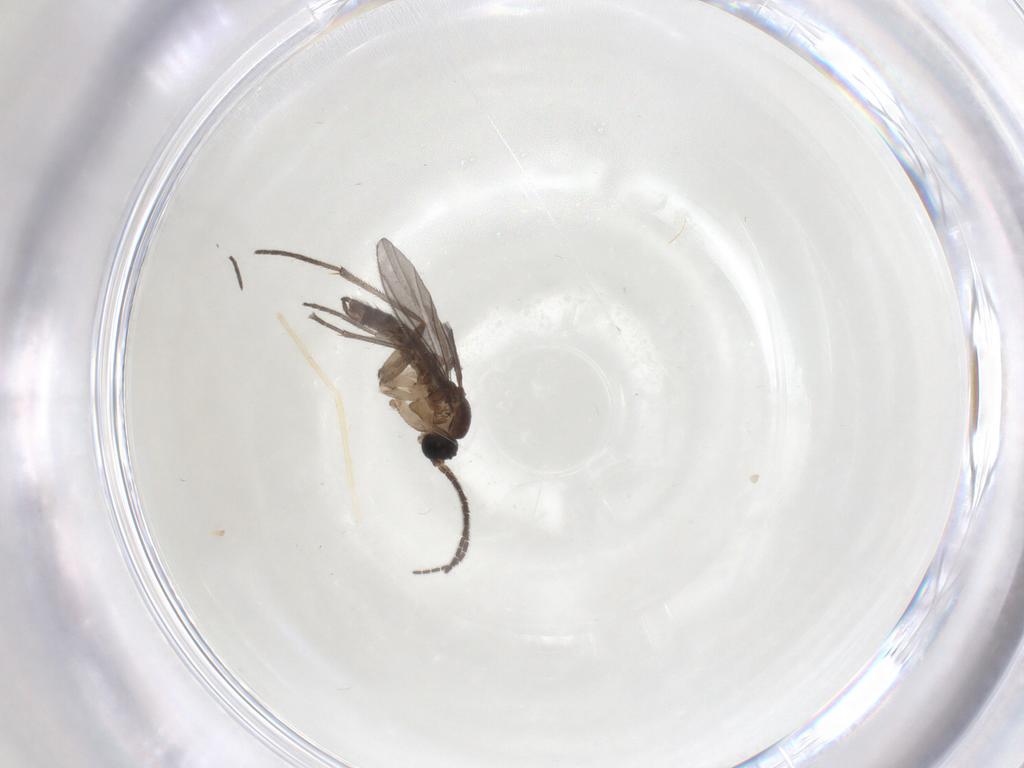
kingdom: Animalia
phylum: Arthropoda
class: Insecta
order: Diptera
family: Sciaridae
